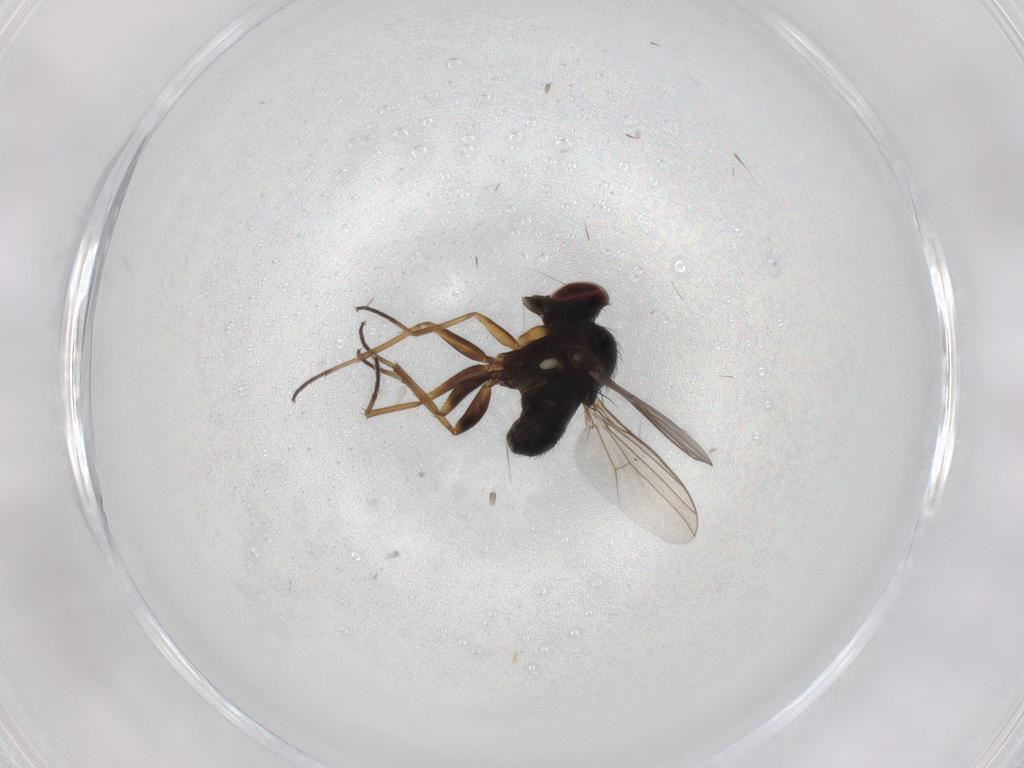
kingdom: Animalia
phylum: Arthropoda
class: Insecta
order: Diptera
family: Dolichopodidae
